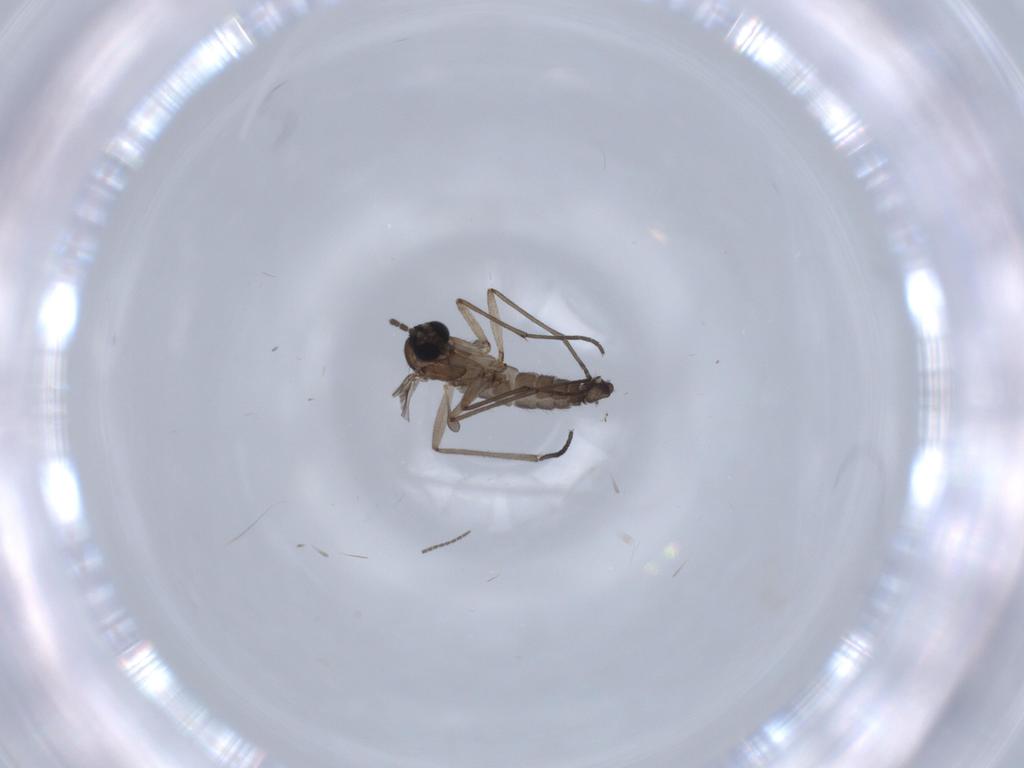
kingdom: Animalia
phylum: Arthropoda
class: Insecta
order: Diptera
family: Sciaridae
